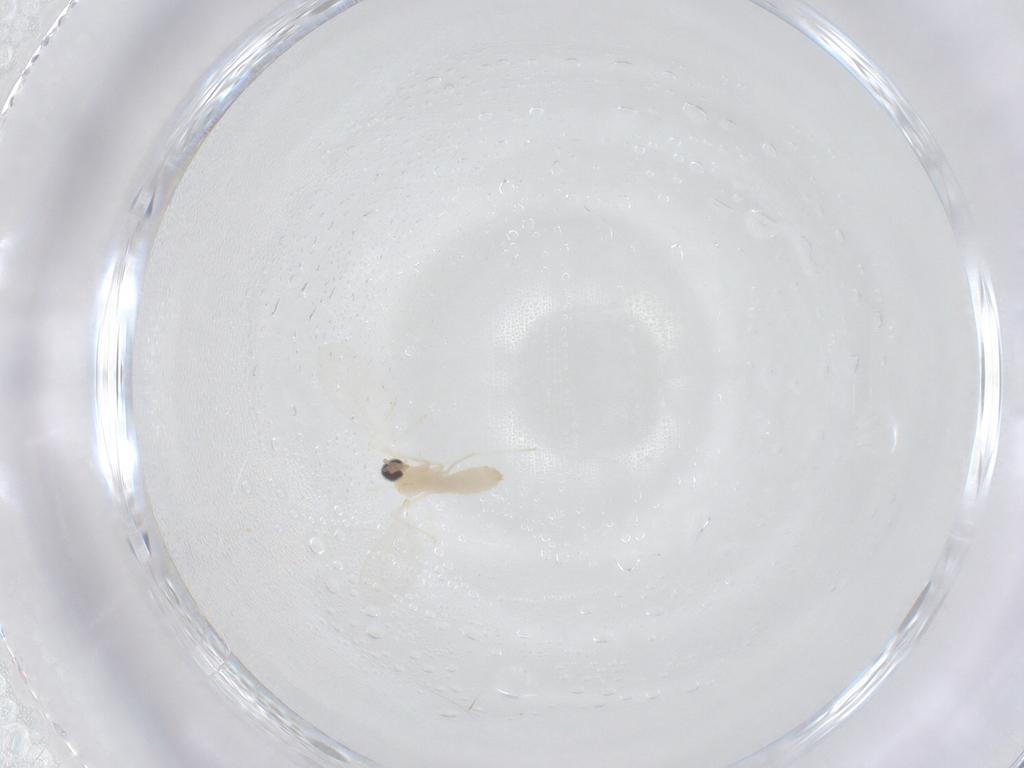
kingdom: Animalia
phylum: Arthropoda
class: Insecta
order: Diptera
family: Cecidomyiidae
